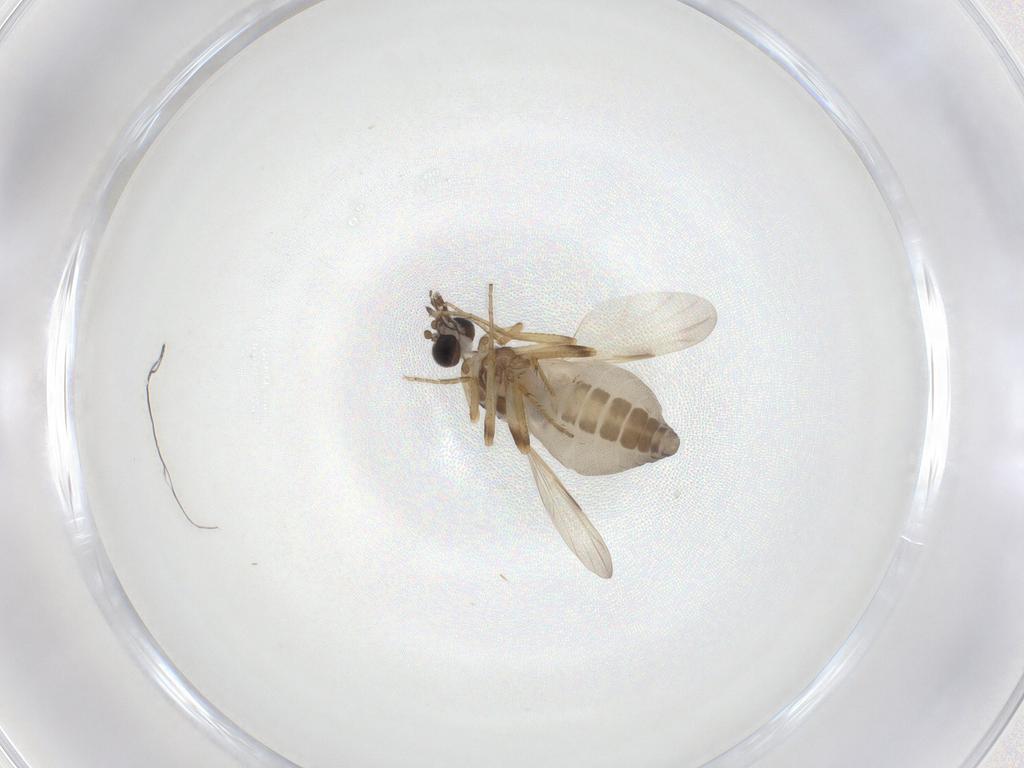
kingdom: Animalia
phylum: Arthropoda
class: Insecta
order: Diptera
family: Ceratopogonidae
